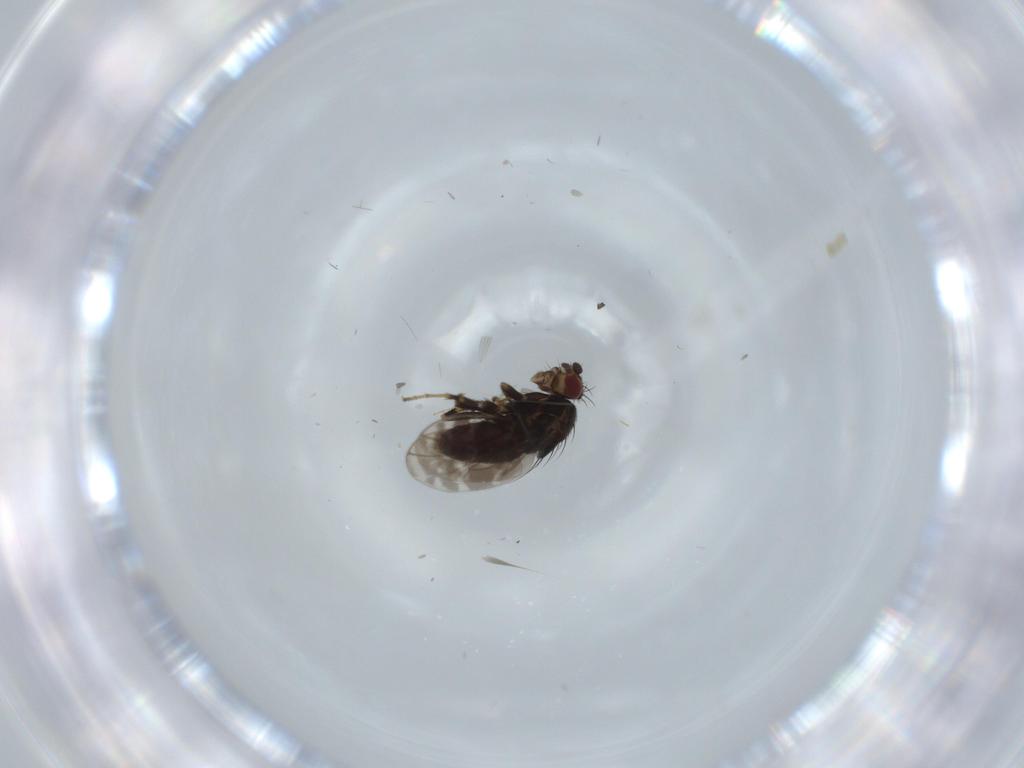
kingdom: Animalia
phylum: Arthropoda
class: Insecta
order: Diptera
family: Sphaeroceridae
